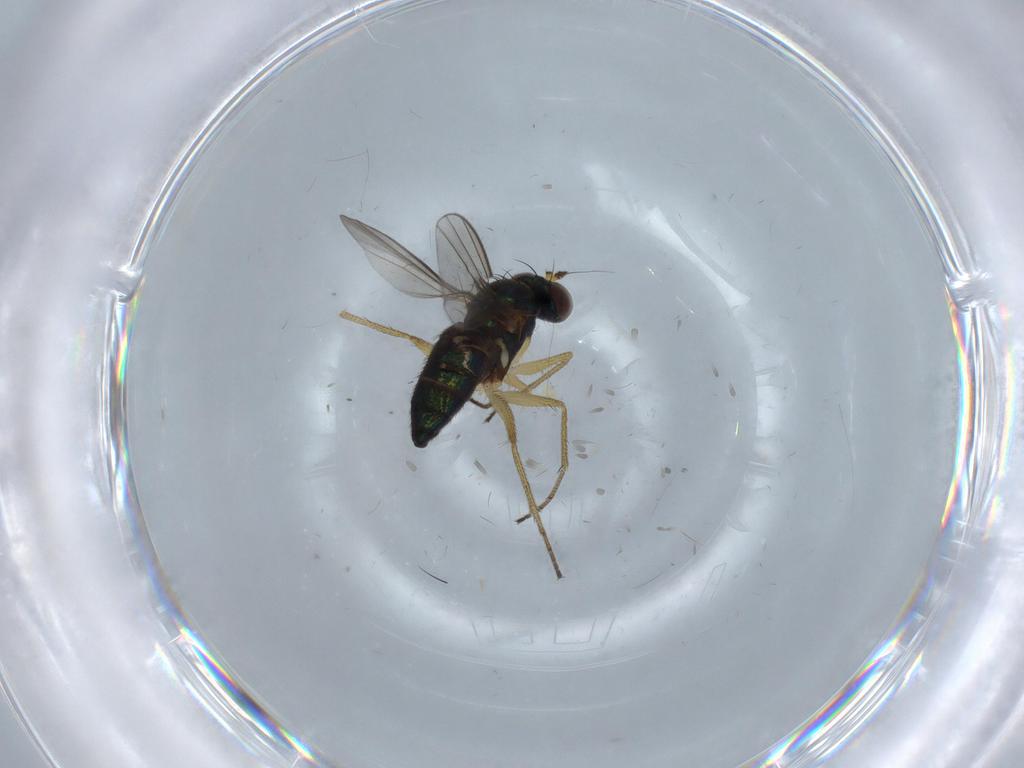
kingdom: Animalia
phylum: Arthropoda
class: Insecta
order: Diptera
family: Dolichopodidae
